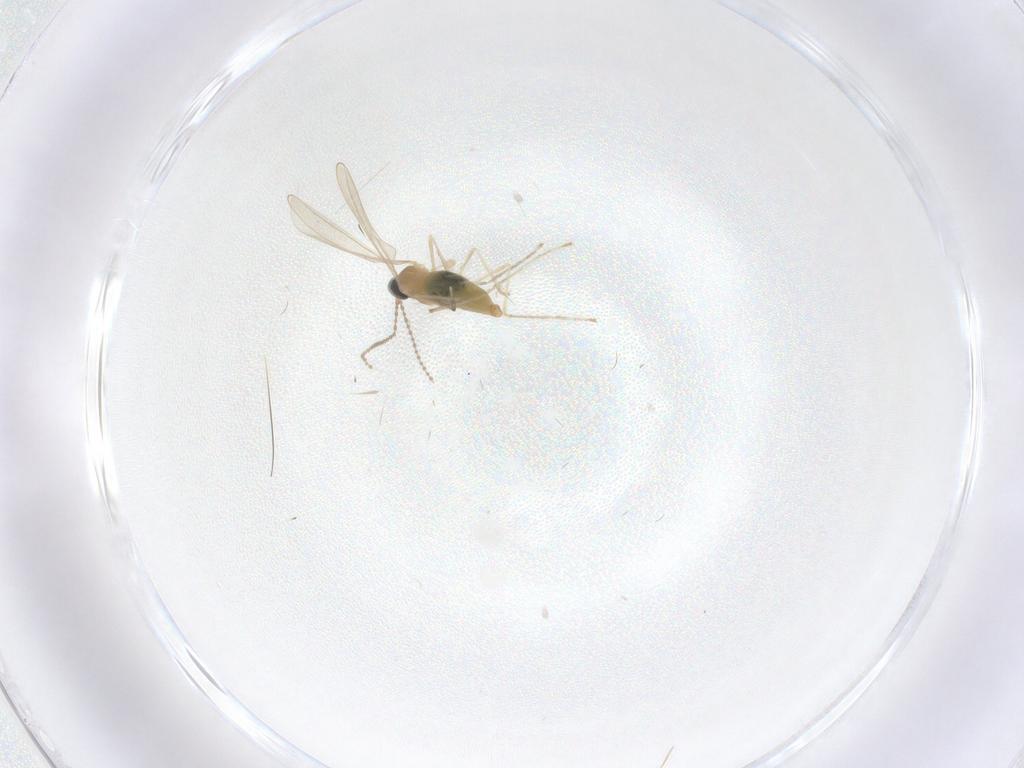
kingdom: Animalia
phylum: Arthropoda
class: Insecta
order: Diptera
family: Cecidomyiidae
